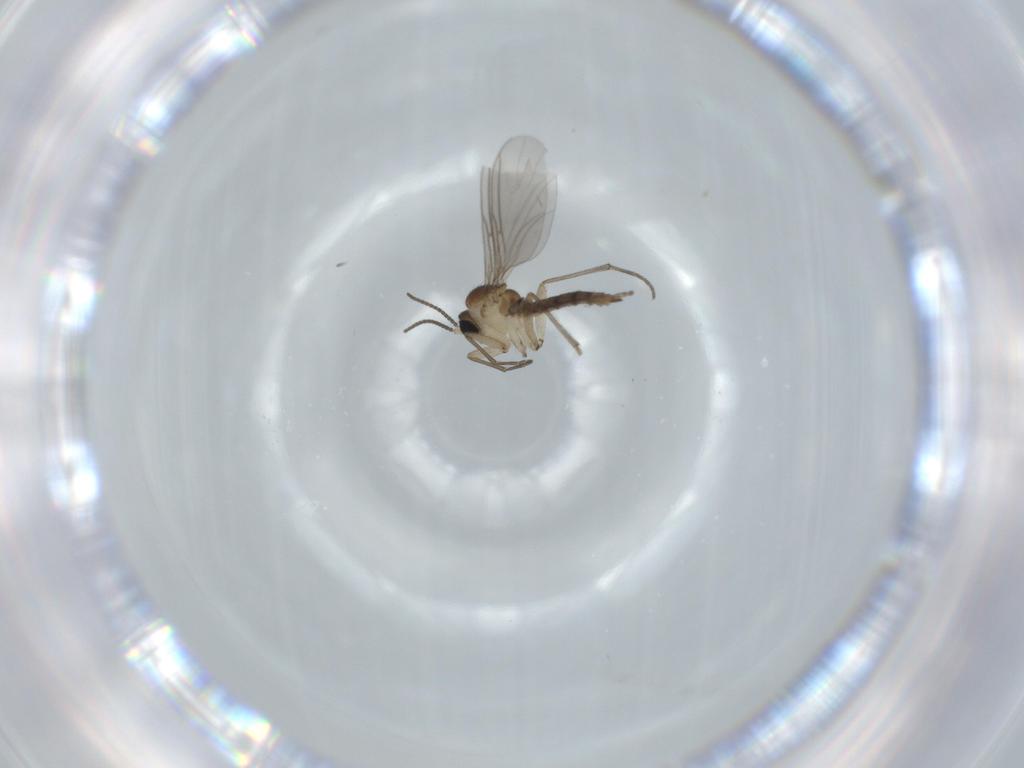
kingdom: Animalia
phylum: Arthropoda
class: Insecta
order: Diptera
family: Sciaridae
